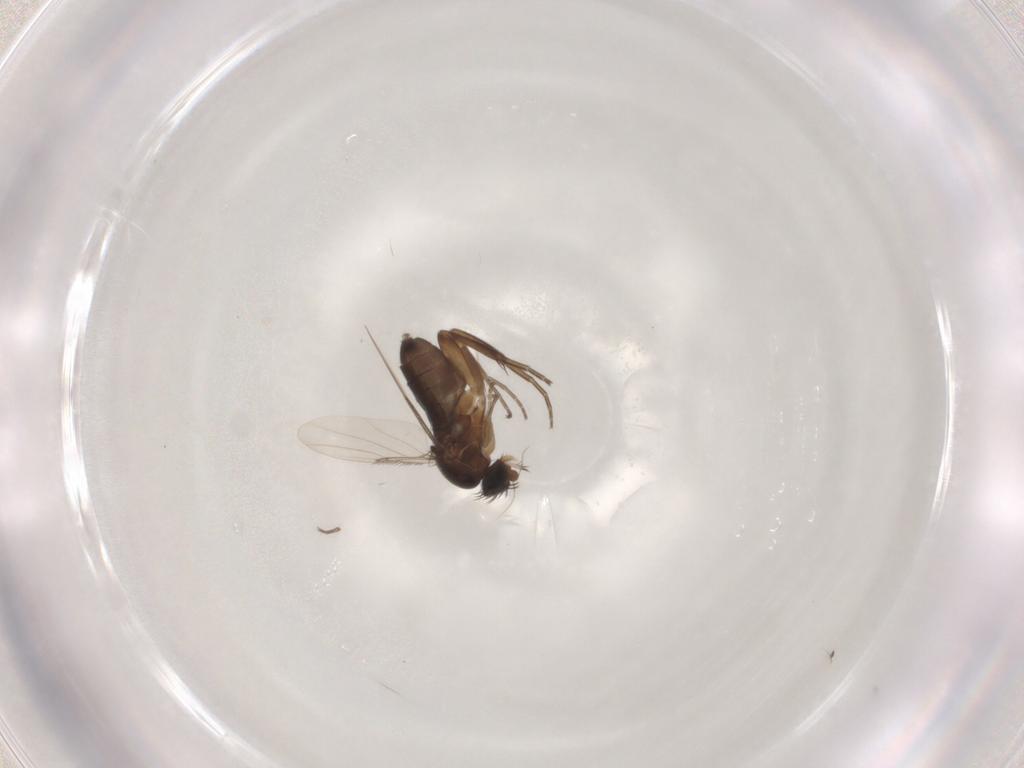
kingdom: Animalia
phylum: Arthropoda
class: Insecta
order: Diptera
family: Phoridae
